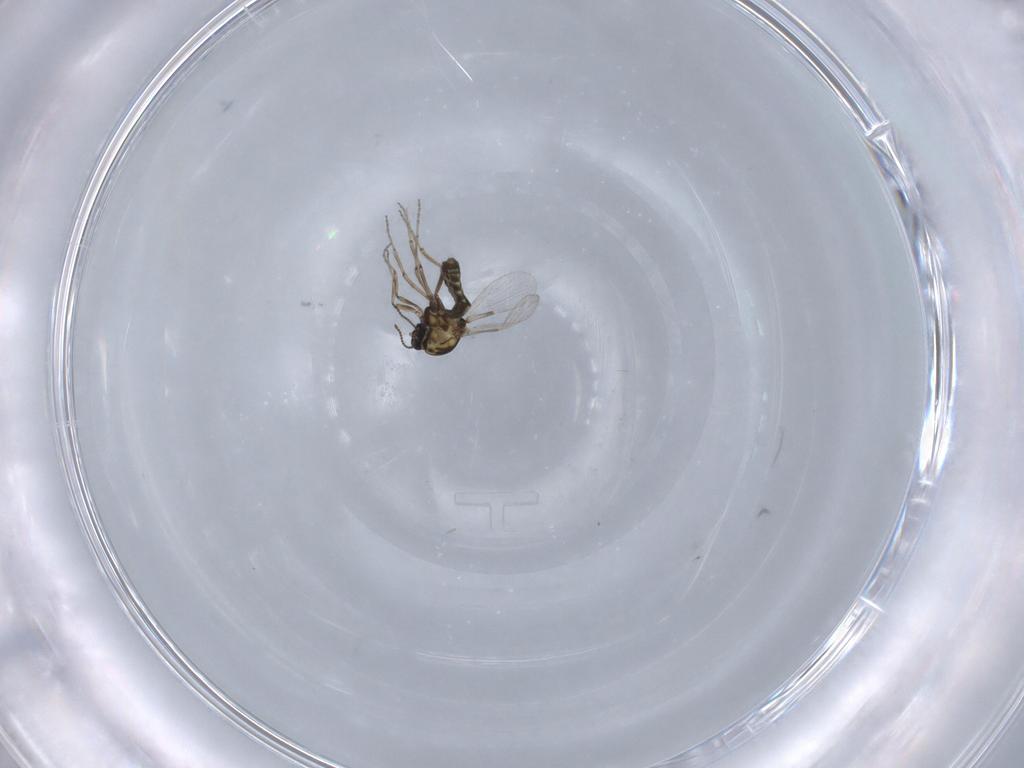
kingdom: Animalia
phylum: Arthropoda
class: Insecta
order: Diptera
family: Ceratopogonidae
